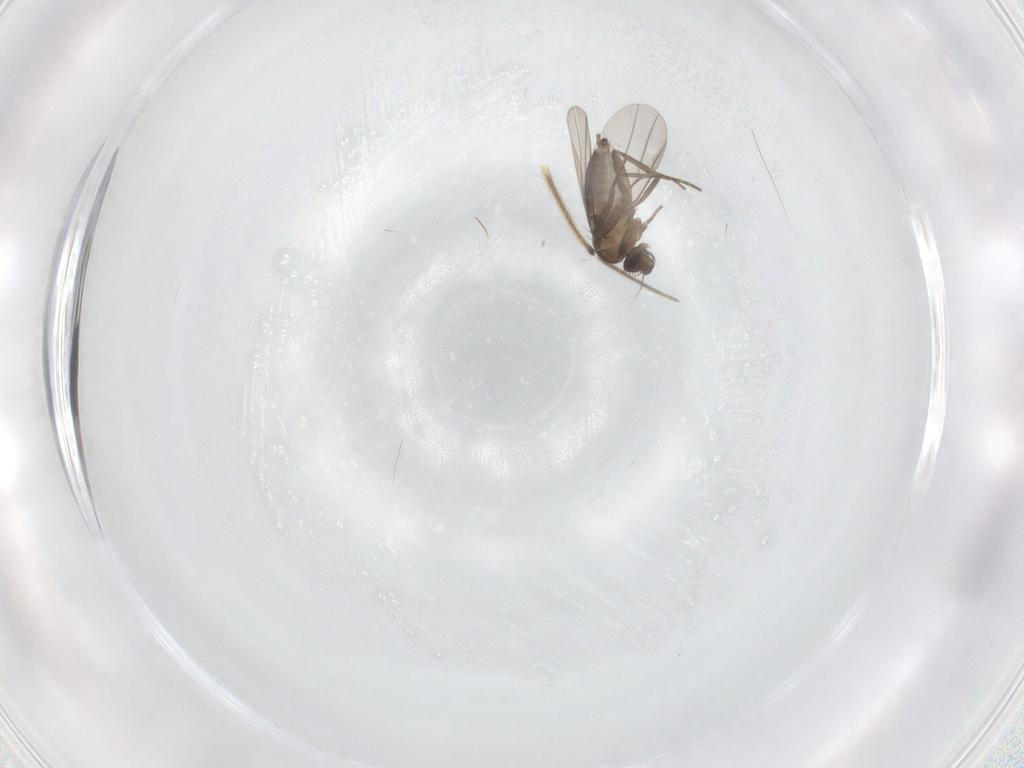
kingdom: Animalia
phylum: Arthropoda
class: Insecta
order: Diptera
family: Phoridae
